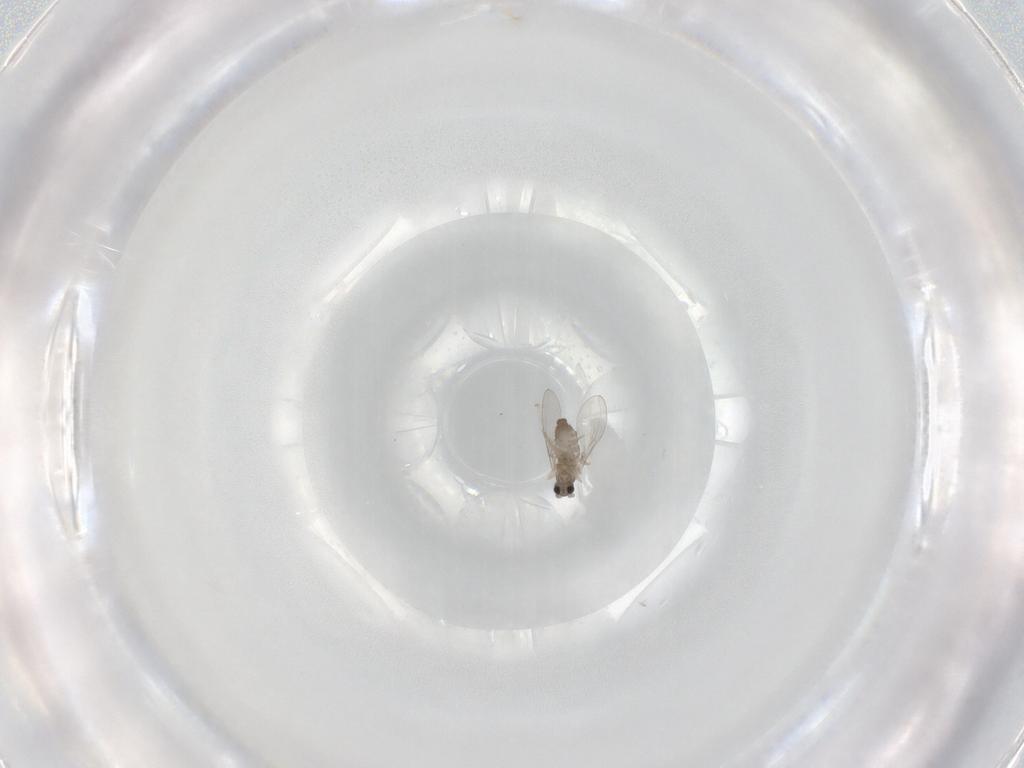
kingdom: Animalia
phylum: Arthropoda
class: Insecta
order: Diptera
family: Cecidomyiidae
